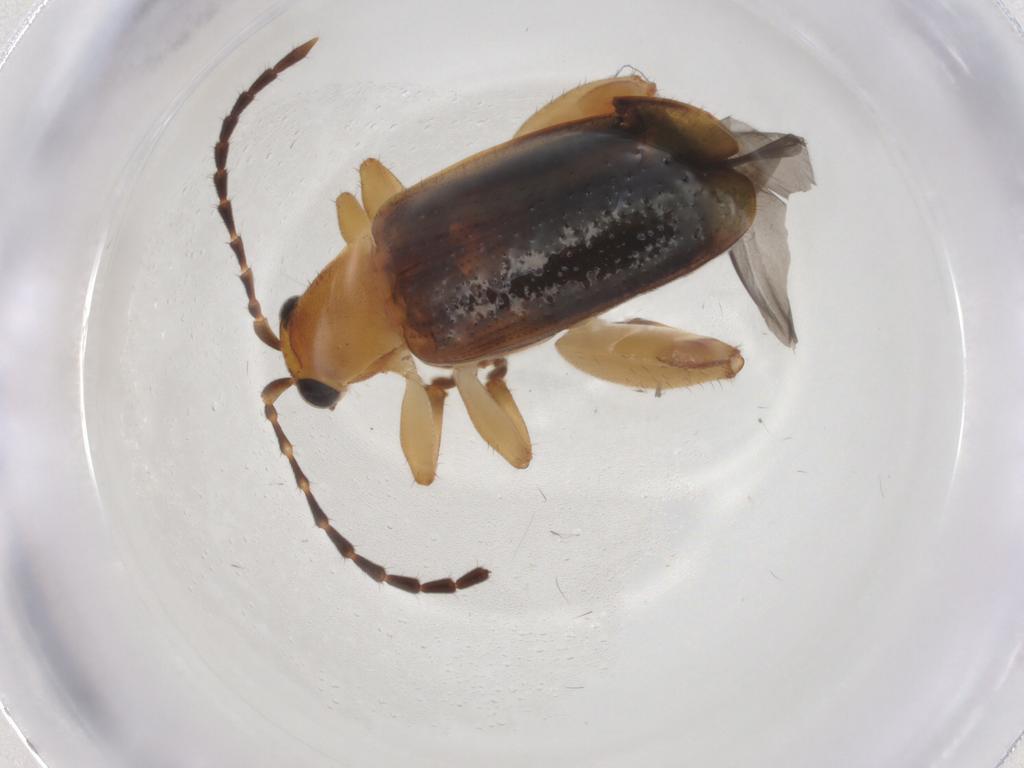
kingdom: Animalia
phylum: Arthropoda
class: Insecta
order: Coleoptera
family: Chrysomelidae
